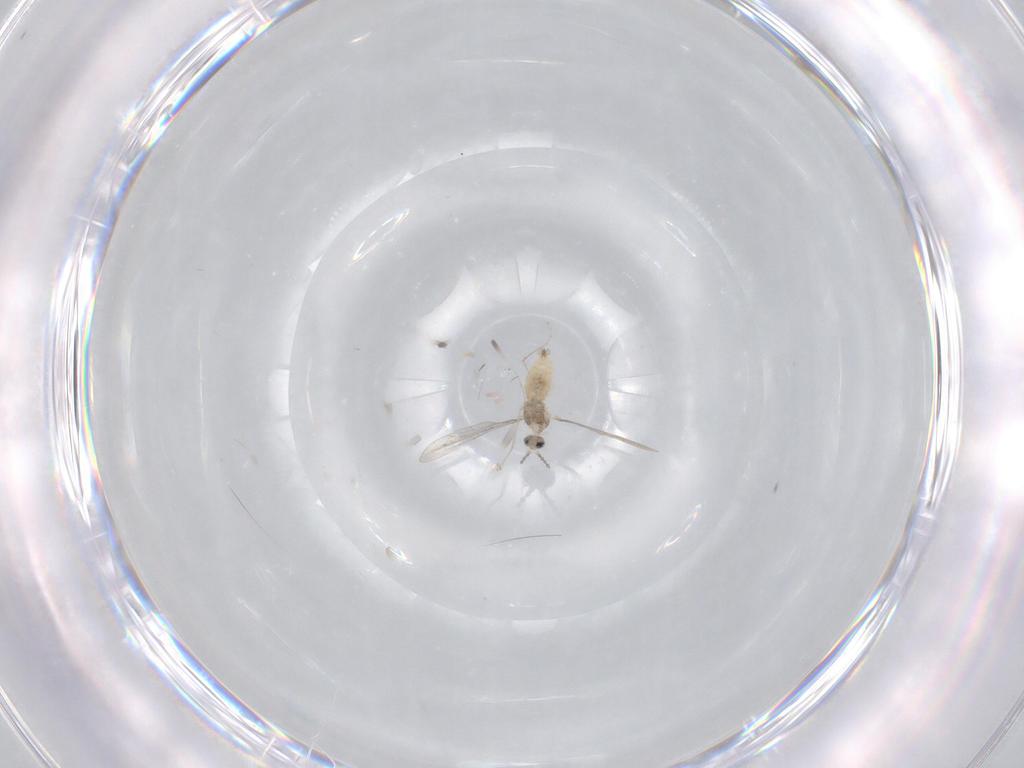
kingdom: Animalia
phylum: Arthropoda
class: Insecta
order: Diptera
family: Cecidomyiidae
